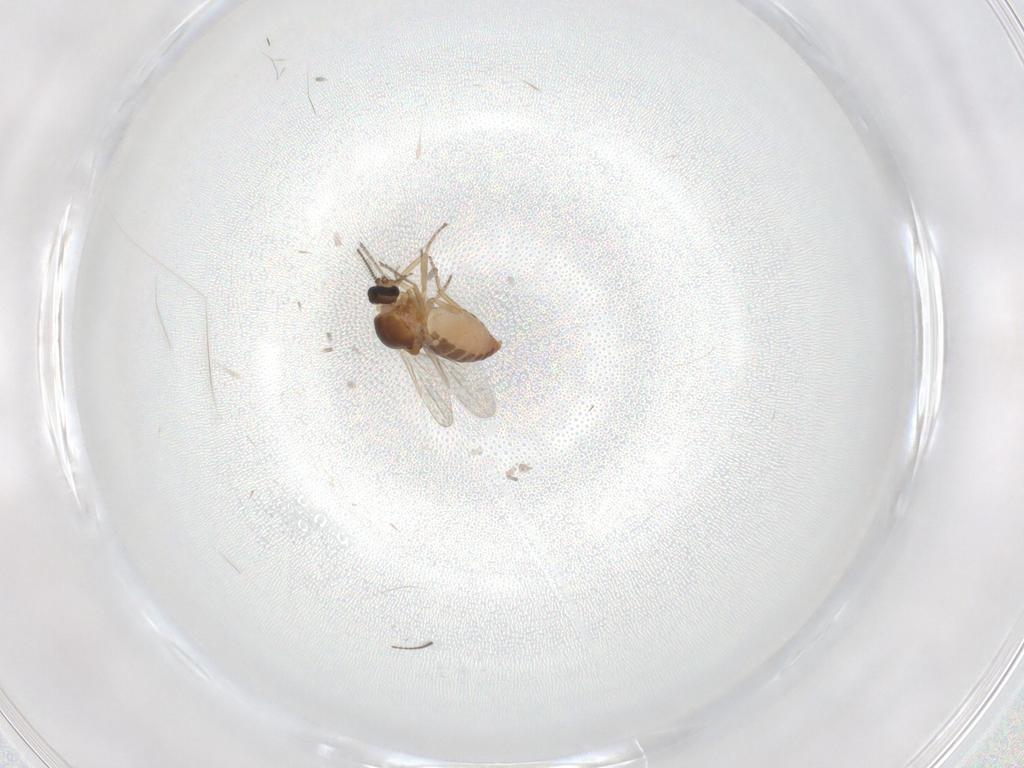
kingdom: Animalia
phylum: Arthropoda
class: Insecta
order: Diptera
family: Ceratopogonidae
